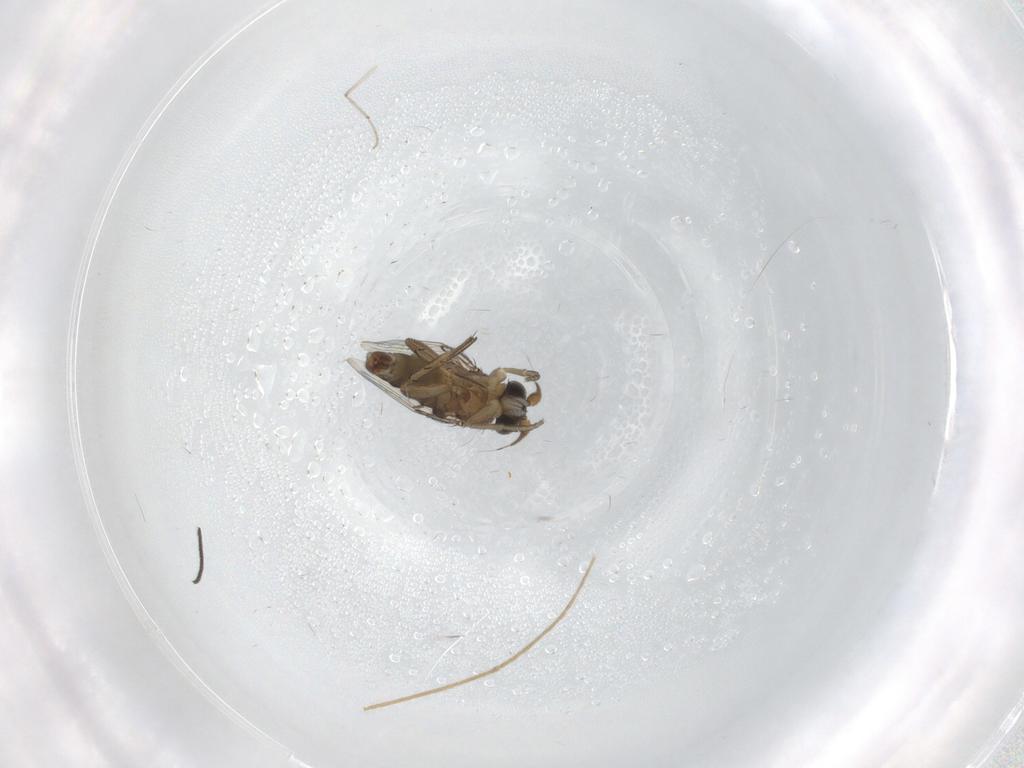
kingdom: Animalia
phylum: Arthropoda
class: Insecta
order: Diptera
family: Phoridae
